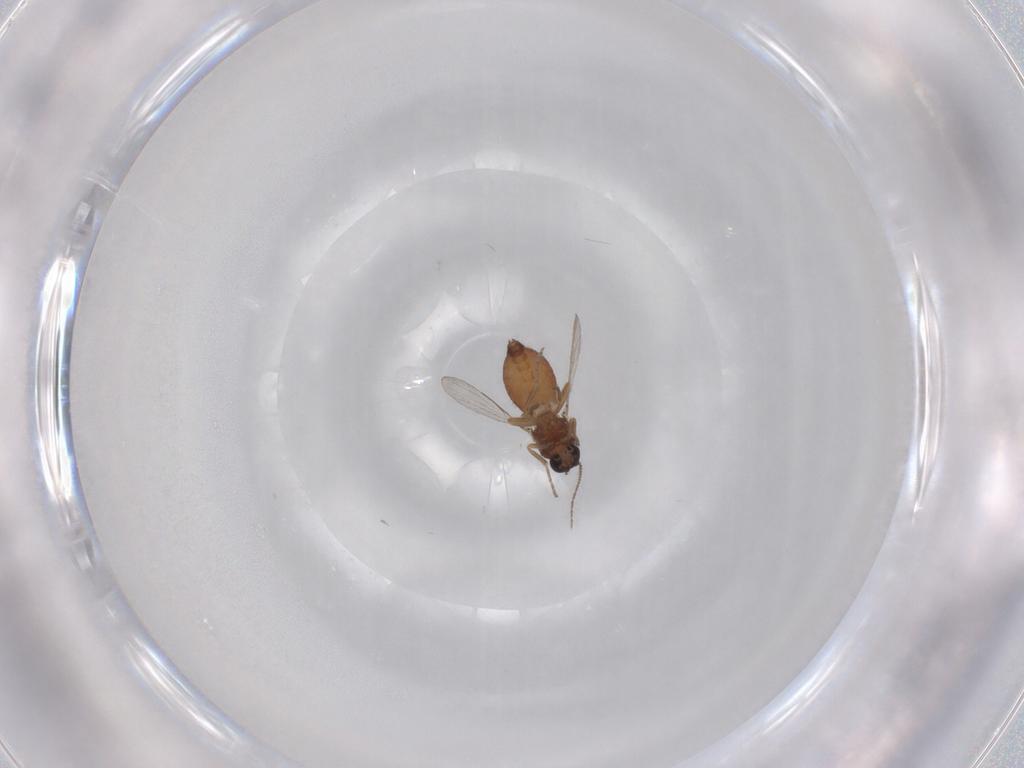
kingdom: Animalia
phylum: Arthropoda
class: Insecta
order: Diptera
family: Ceratopogonidae
